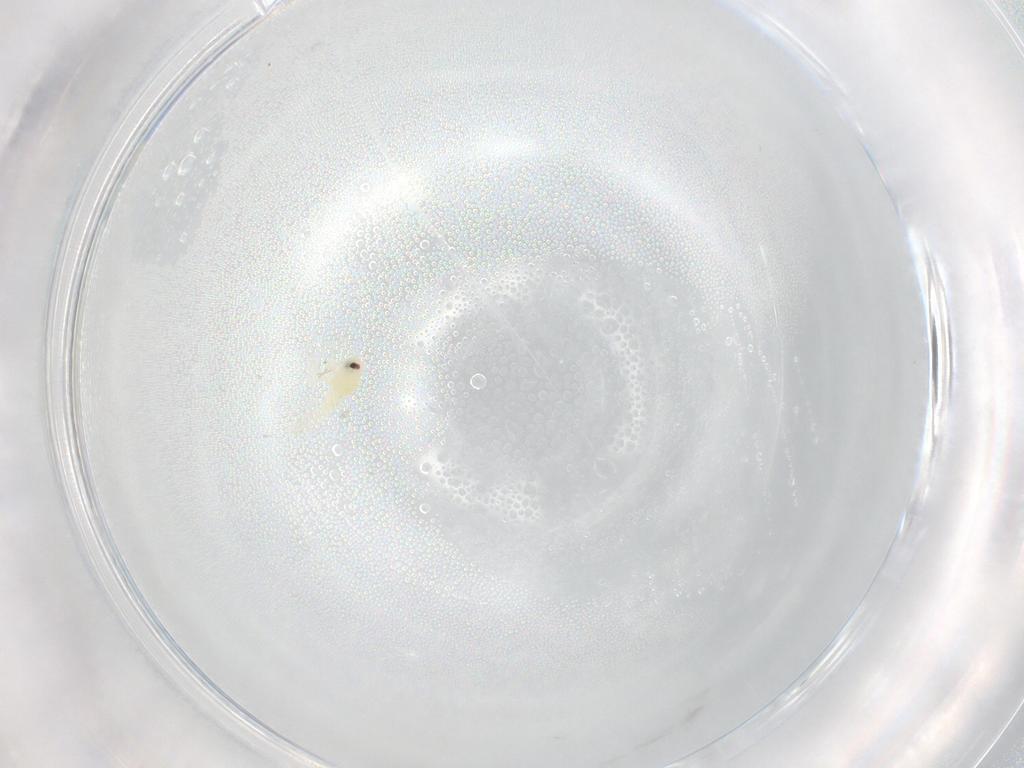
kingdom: Animalia
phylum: Arthropoda
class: Insecta
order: Hemiptera
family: Aleyrodidae
